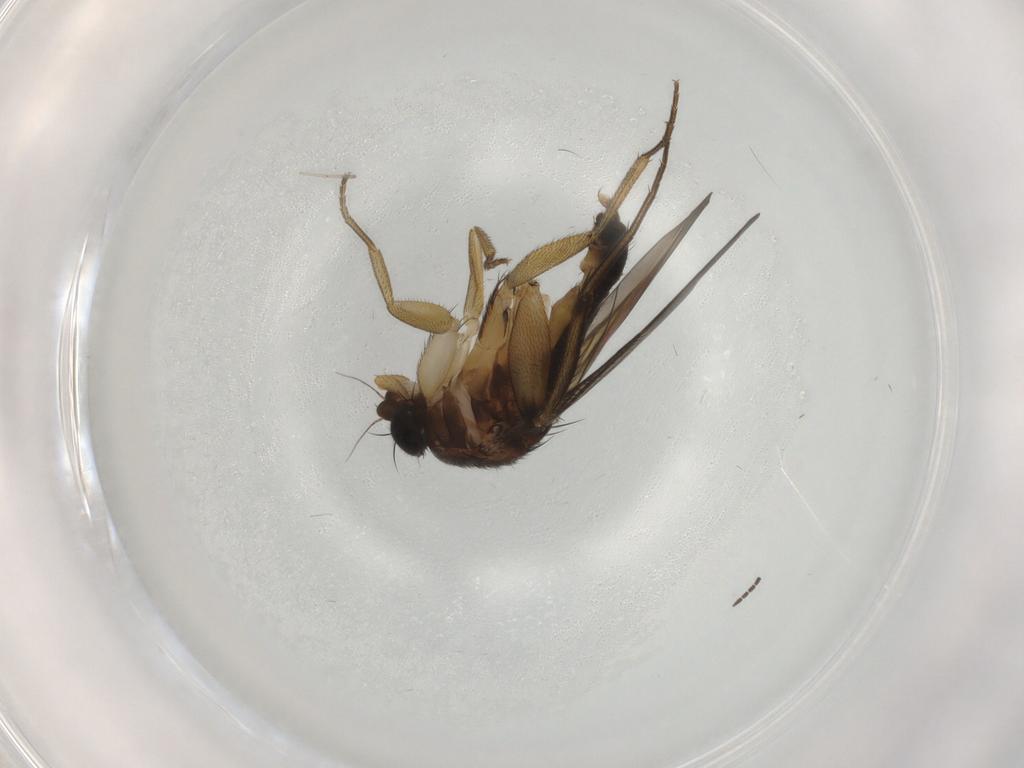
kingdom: Animalia
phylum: Arthropoda
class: Insecta
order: Diptera
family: Phoridae
